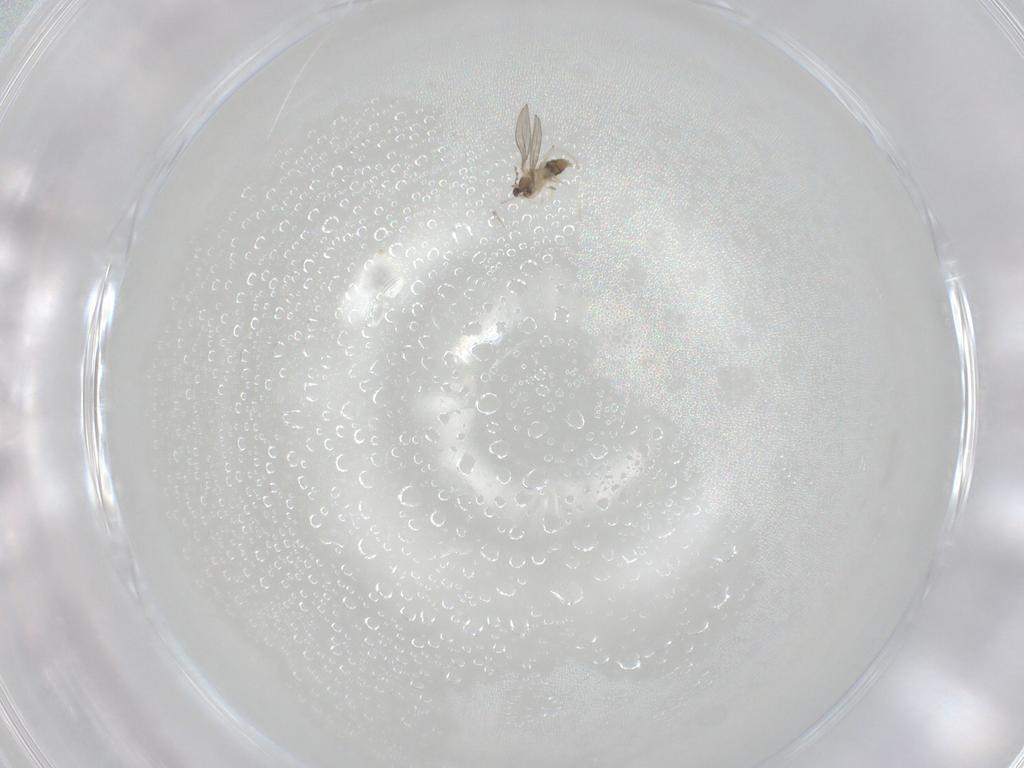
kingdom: Animalia
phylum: Arthropoda
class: Insecta
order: Diptera
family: Cecidomyiidae
